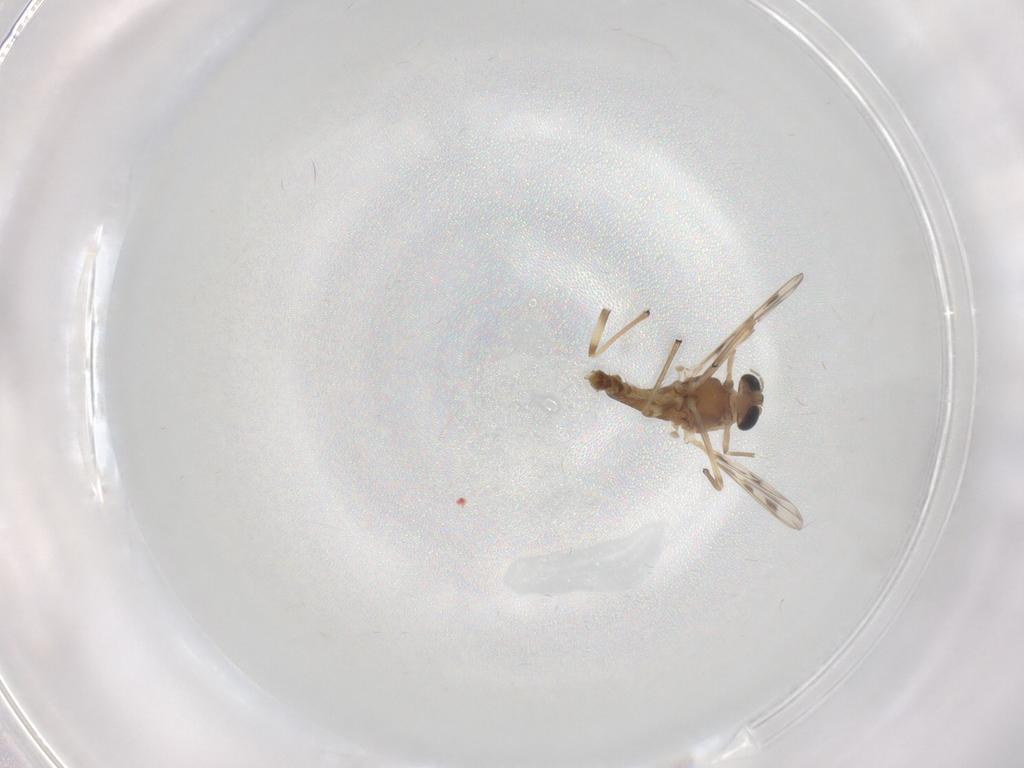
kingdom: Animalia
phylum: Arthropoda
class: Insecta
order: Diptera
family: Chironomidae
